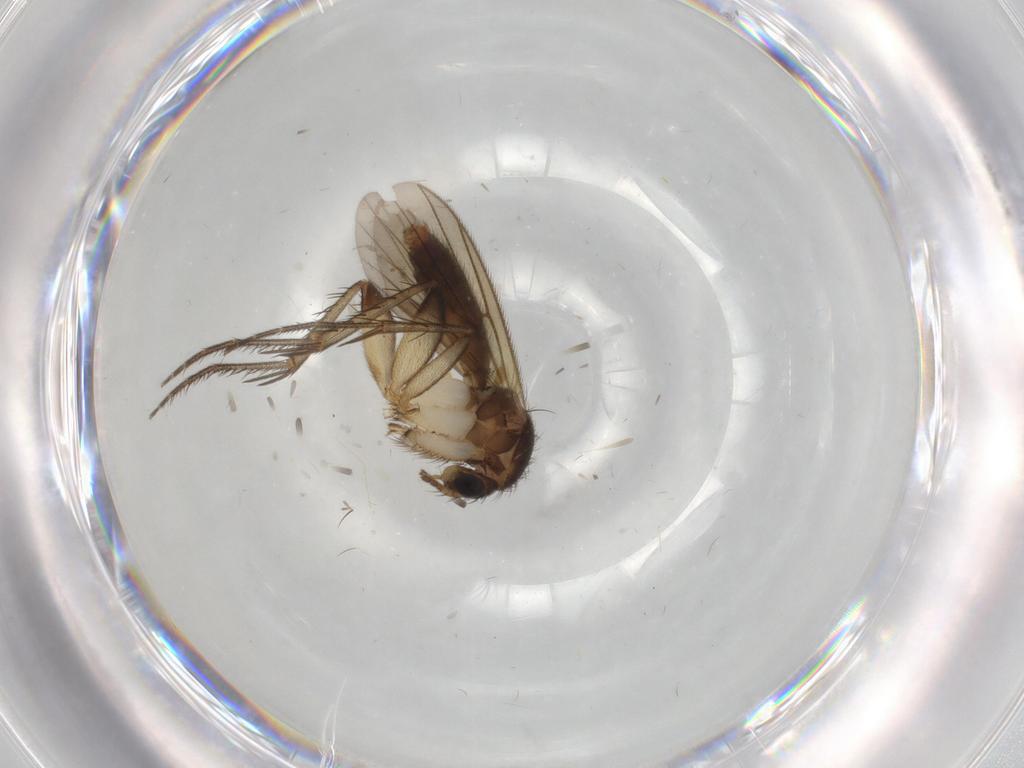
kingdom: Animalia
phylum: Arthropoda
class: Insecta
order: Diptera
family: Mycetophilidae
